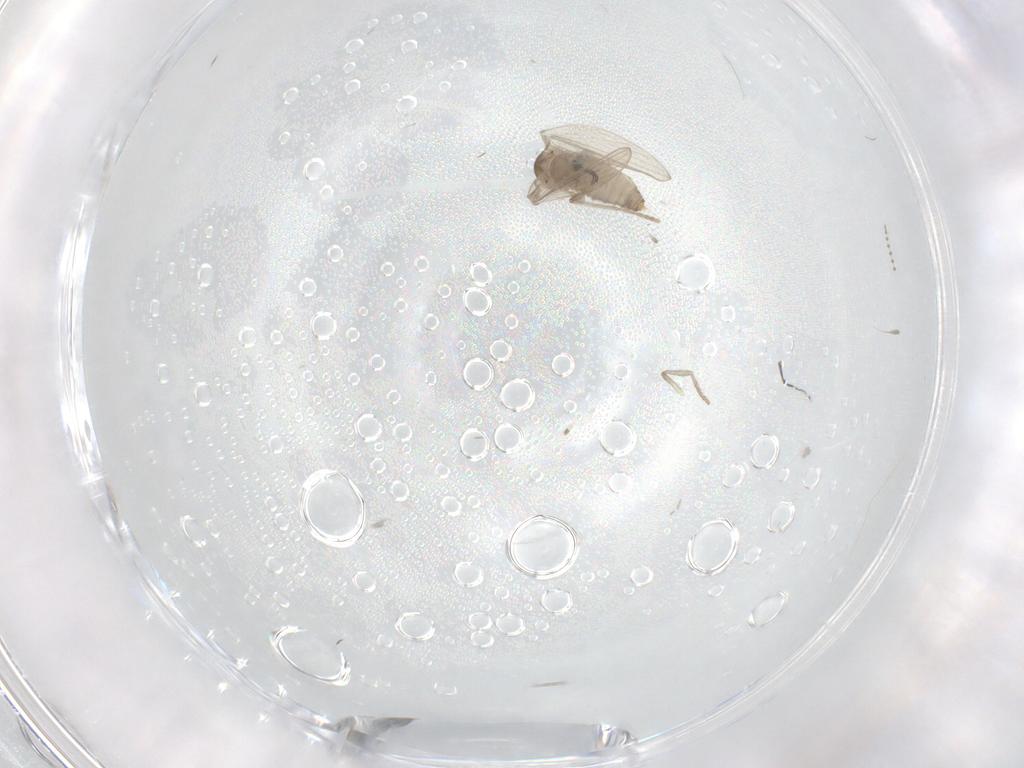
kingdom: Animalia
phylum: Arthropoda
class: Insecta
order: Diptera
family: Psychodidae
